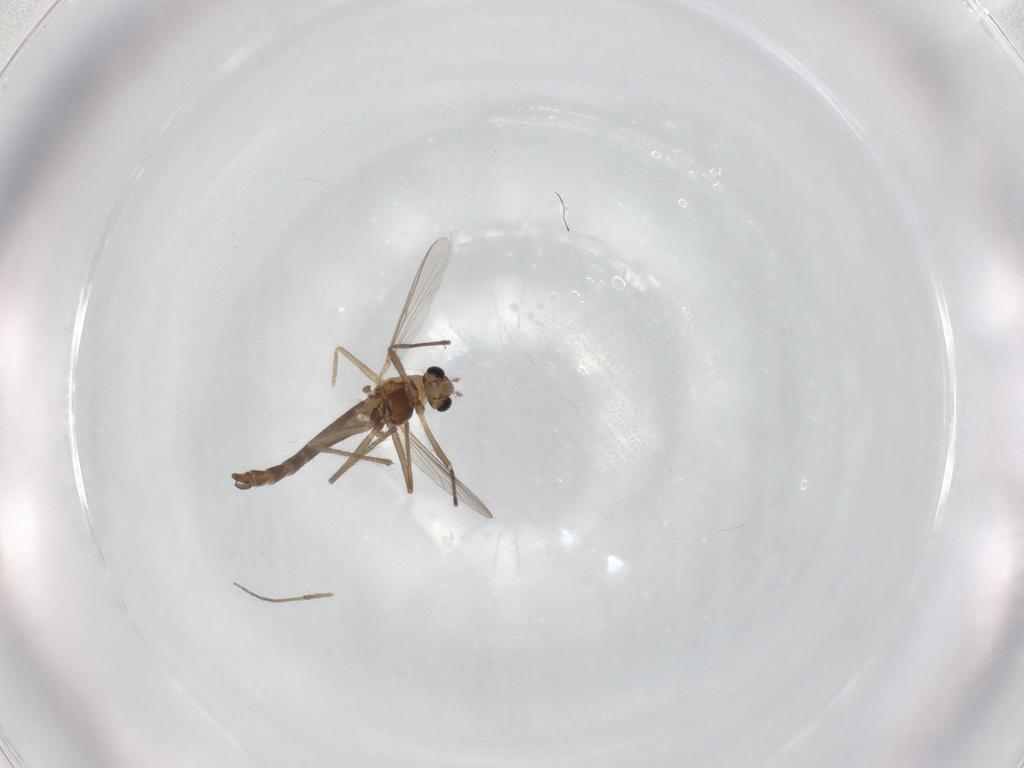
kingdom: Animalia
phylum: Arthropoda
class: Insecta
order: Diptera
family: Chironomidae
